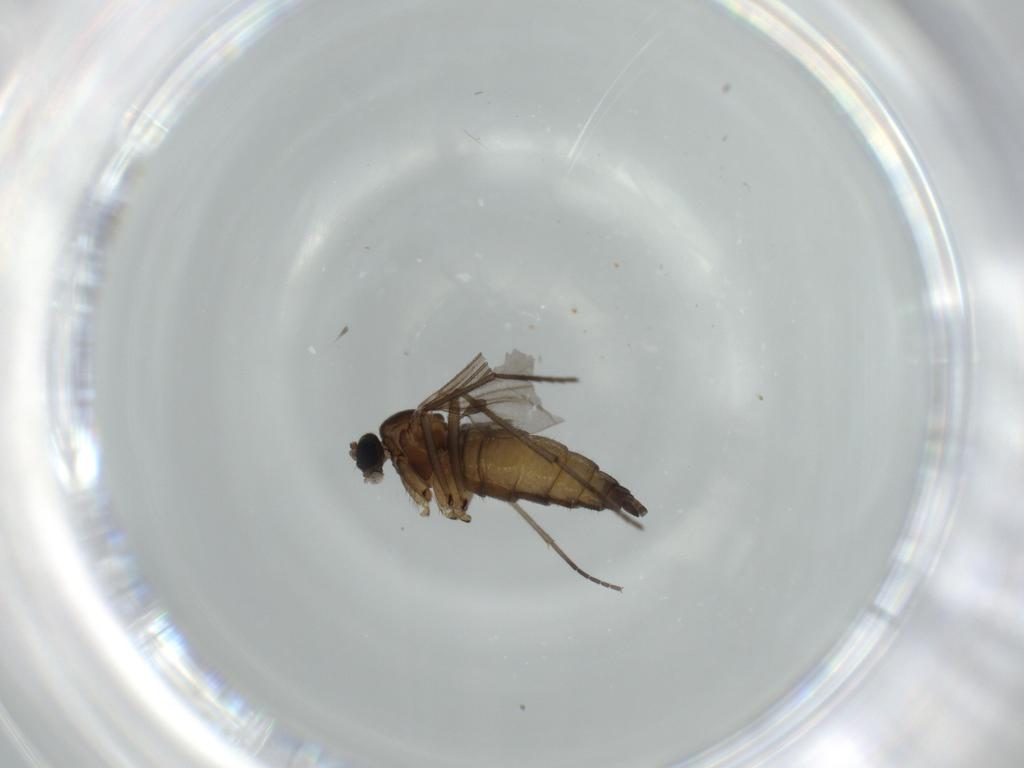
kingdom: Animalia
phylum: Arthropoda
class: Insecta
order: Diptera
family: Sciaridae
